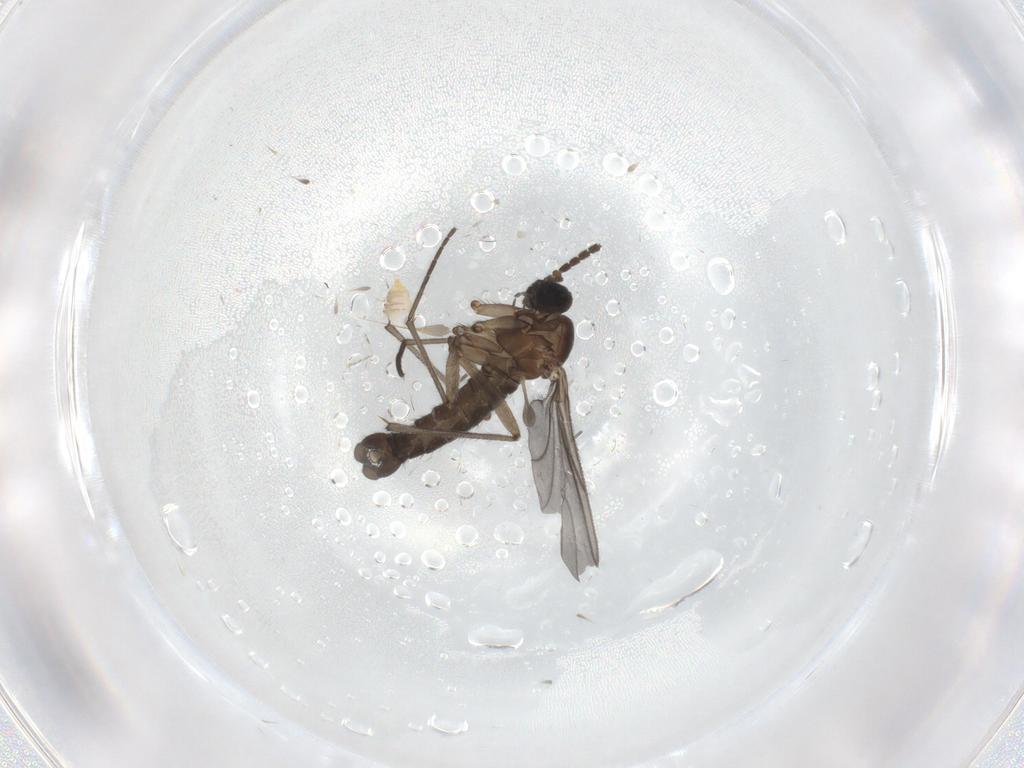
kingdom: Animalia
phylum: Arthropoda
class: Insecta
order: Diptera
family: Sciaridae
